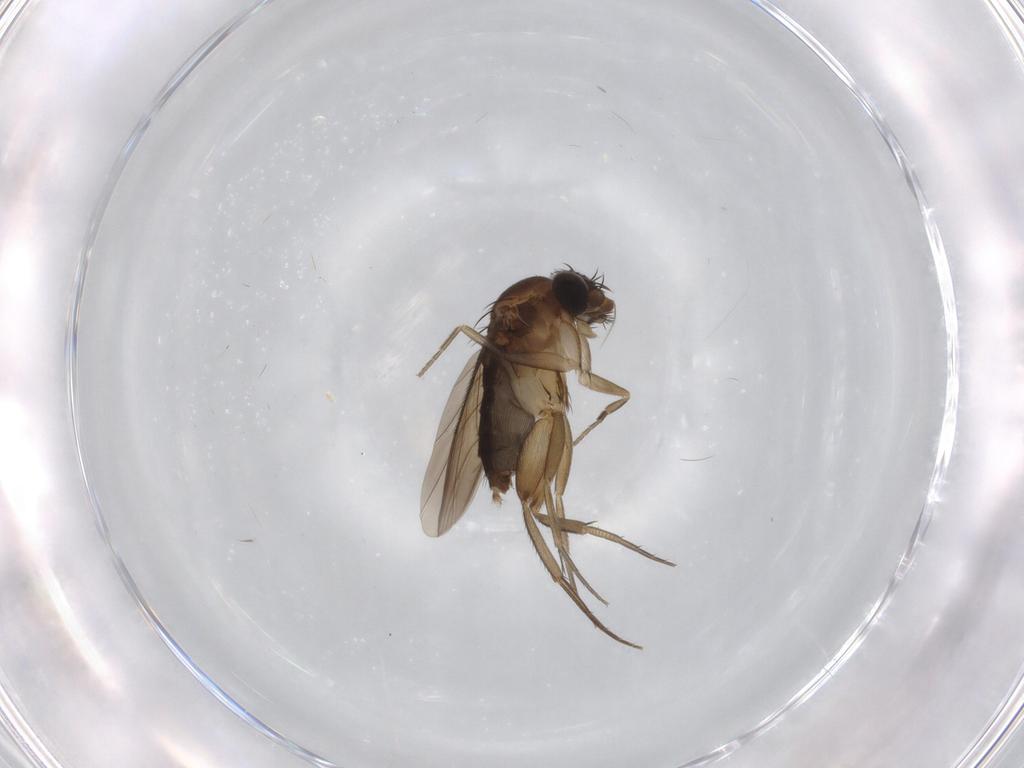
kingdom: Animalia
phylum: Arthropoda
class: Insecta
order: Diptera
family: Phoridae
